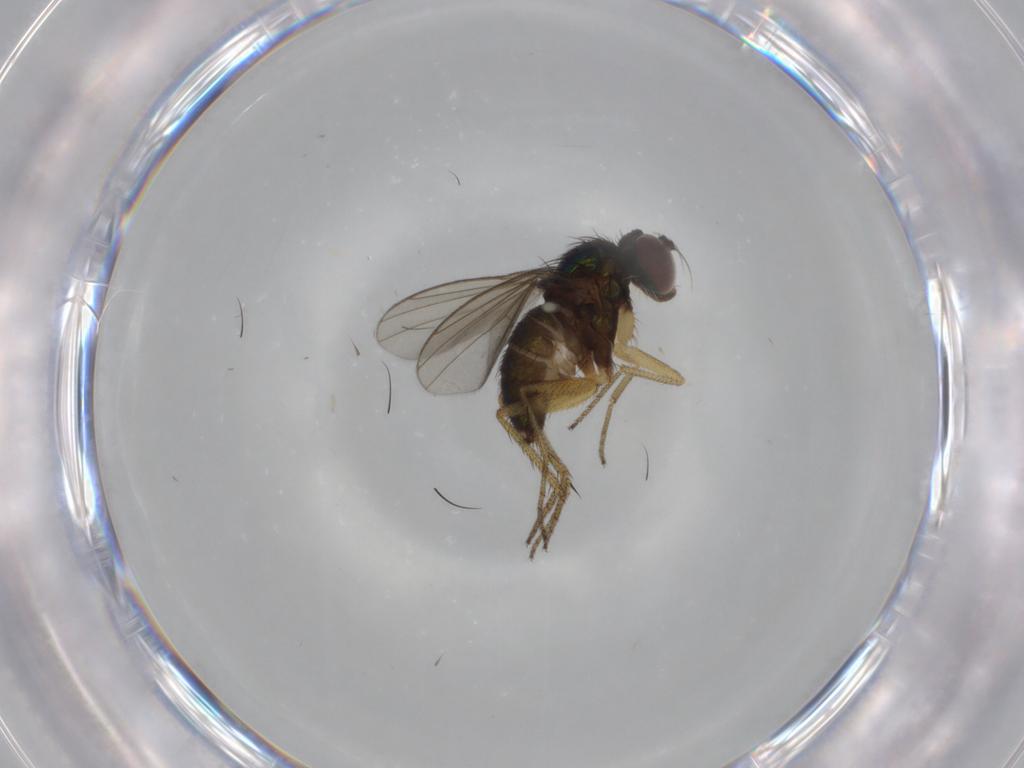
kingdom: Animalia
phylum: Arthropoda
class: Insecta
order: Diptera
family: Dolichopodidae
